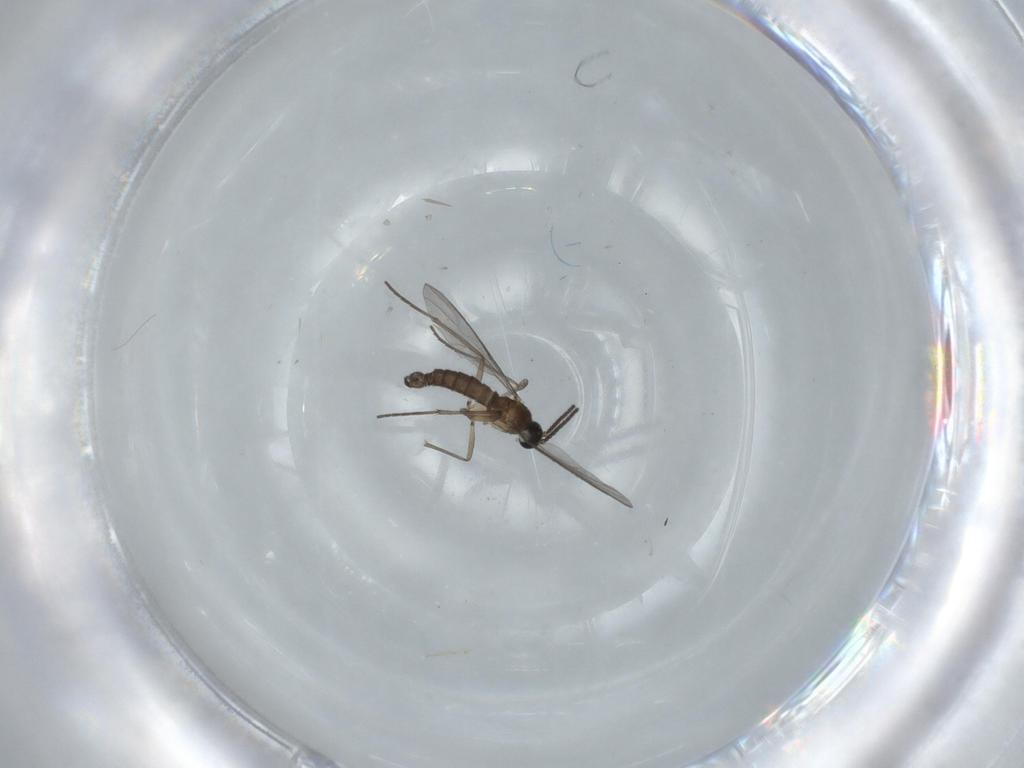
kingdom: Animalia
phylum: Arthropoda
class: Insecta
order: Diptera
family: Sciaridae
